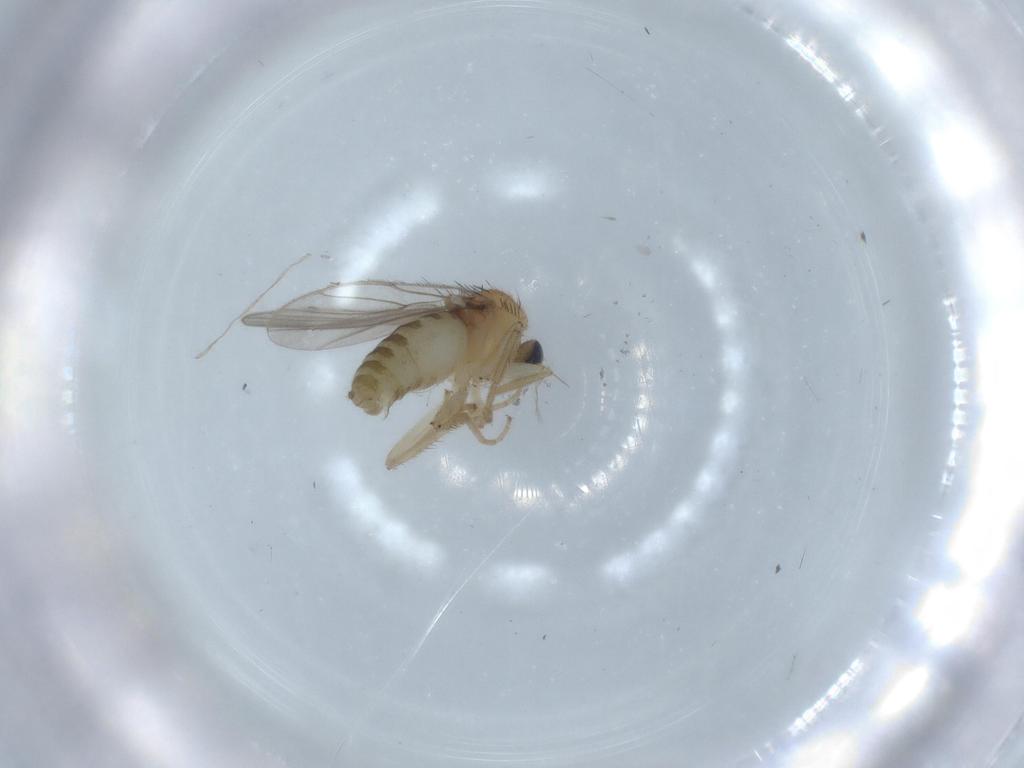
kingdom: Animalia
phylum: Arthropoda
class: Insecta
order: Diptera
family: Hybotidae
